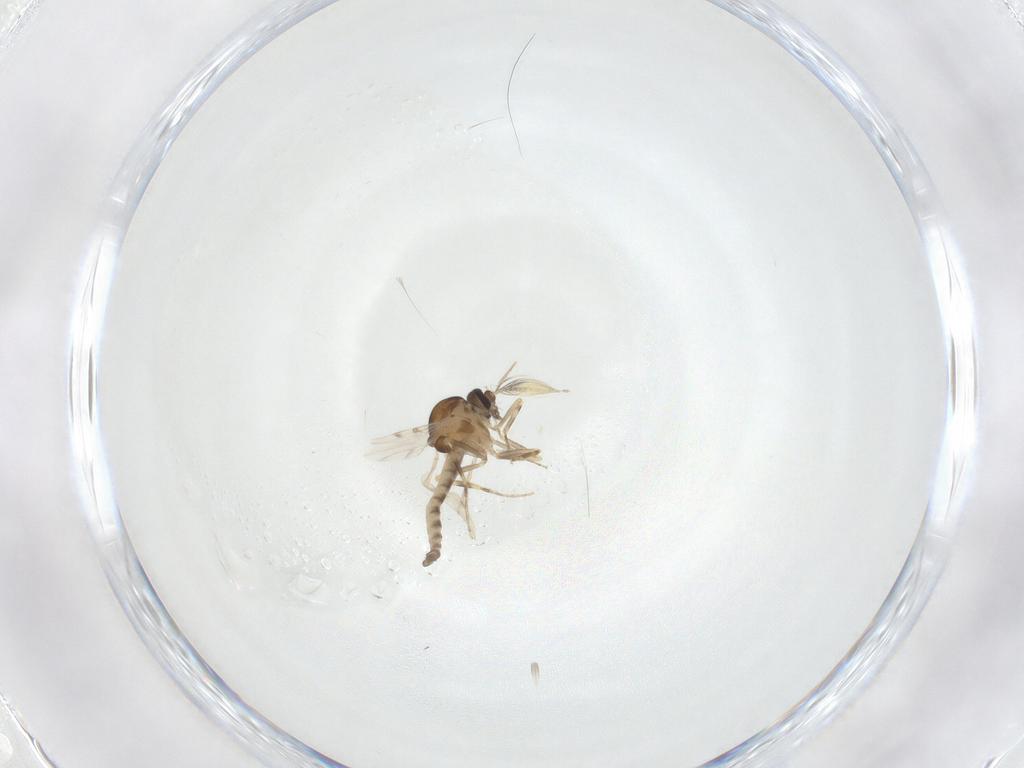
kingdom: Animalia
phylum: Arthropoda
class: Insecta
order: Diptera
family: Ceratopogonidae
